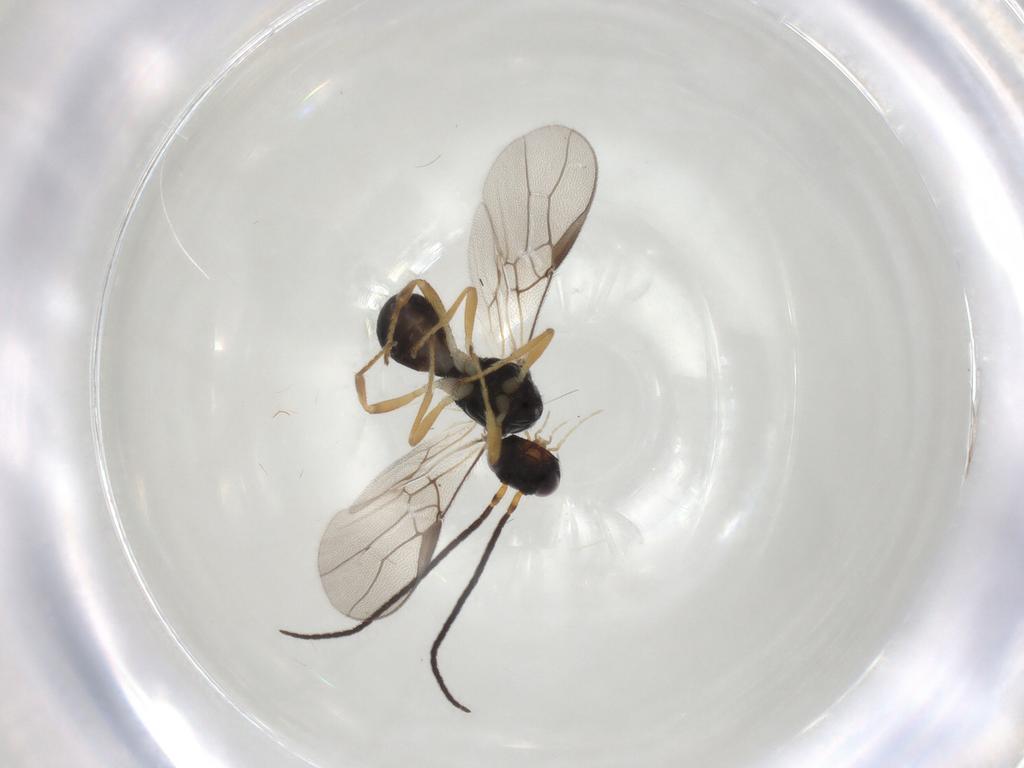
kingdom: Animalia
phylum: Arthropoda
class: Insecta
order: Hymenoptera
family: Braconidae
